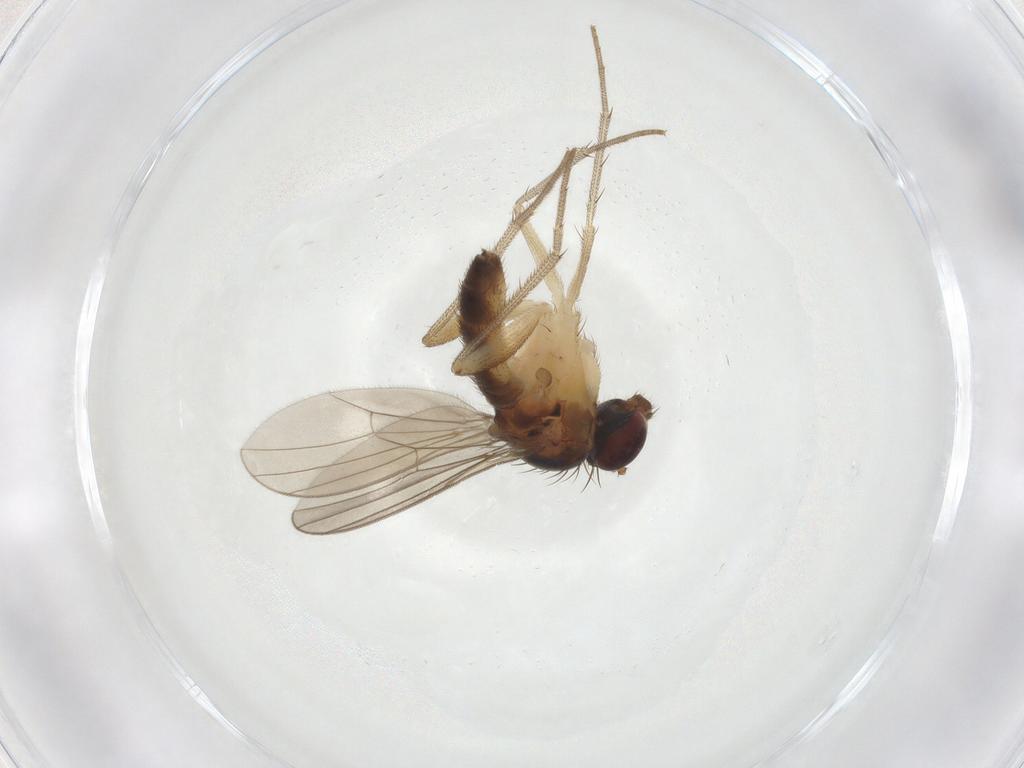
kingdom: Animalia
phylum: Arthropoda
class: Insecta
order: Diptera
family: Dolichopodidae
